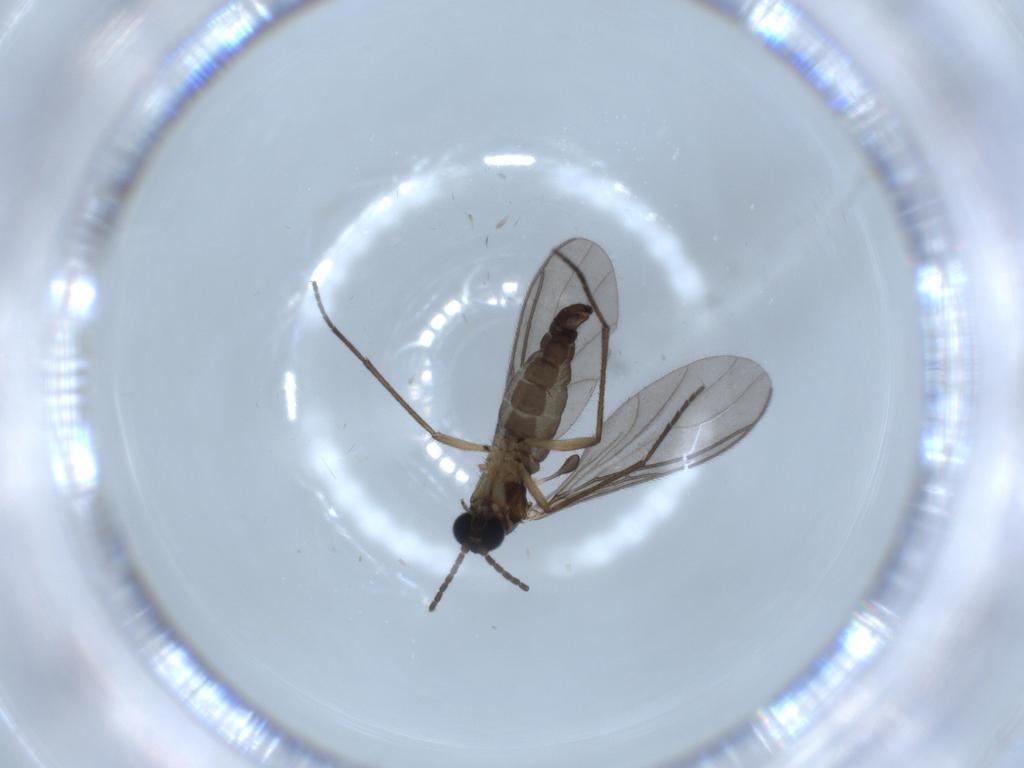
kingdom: Animalia
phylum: Arthropoda
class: Insecta
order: Diptera
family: Sciaridae
